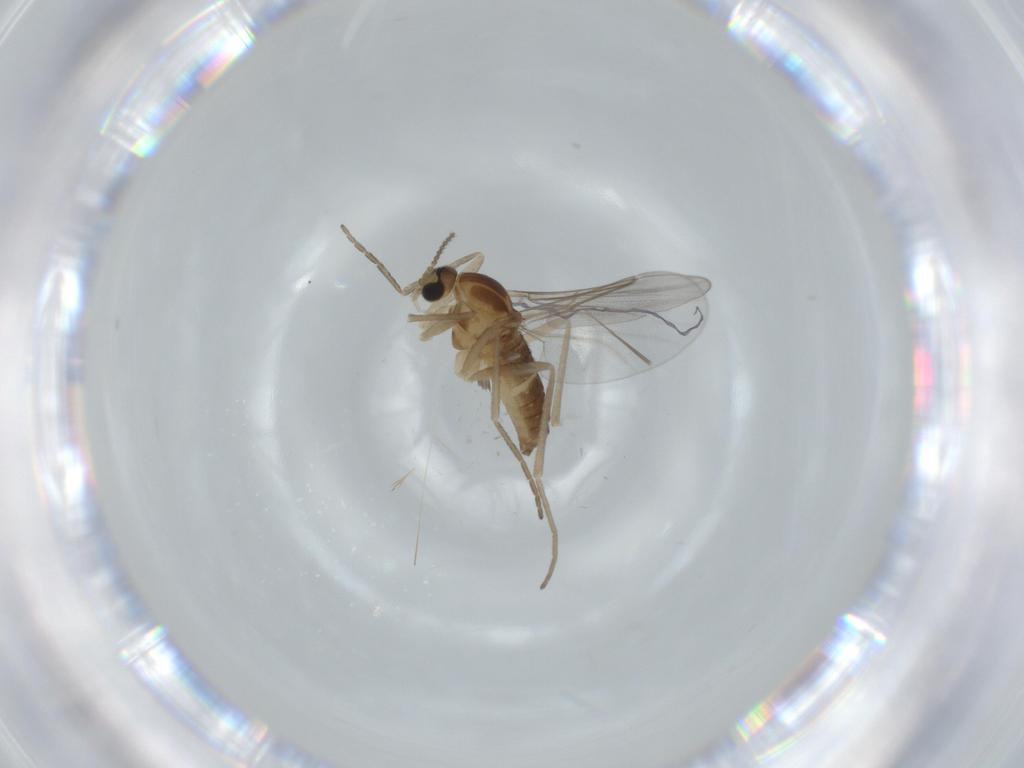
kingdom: Animalia
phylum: Arthropoda
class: Insecta
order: Diptera
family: Cecidomyiidae
